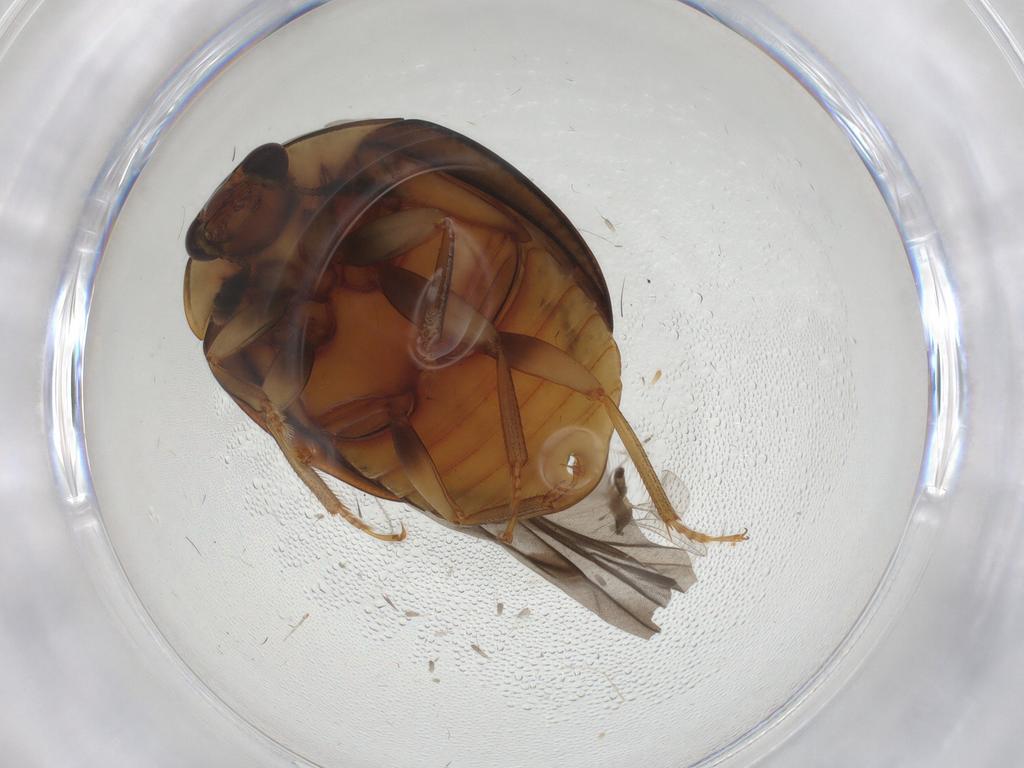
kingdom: Animalia
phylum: Arthropoda
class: Insecta
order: Coleoptera
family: Nitidulidae
